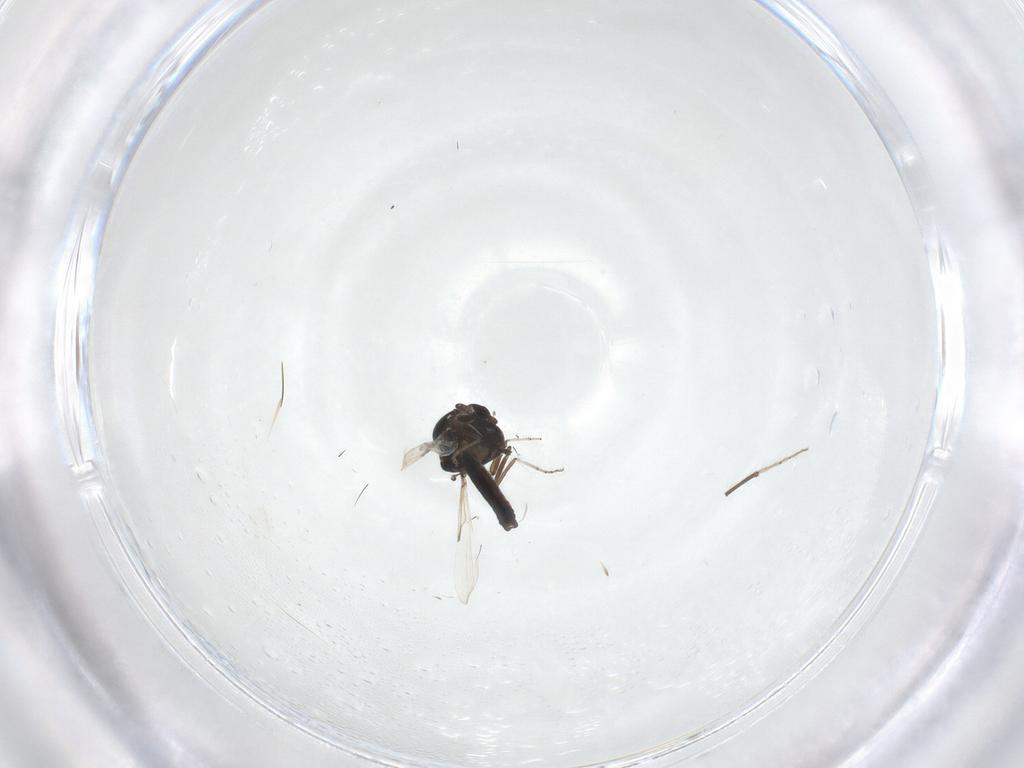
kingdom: Animalia
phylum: Arthropoda
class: Insecta
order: Diptera
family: Ceratopogonidae
